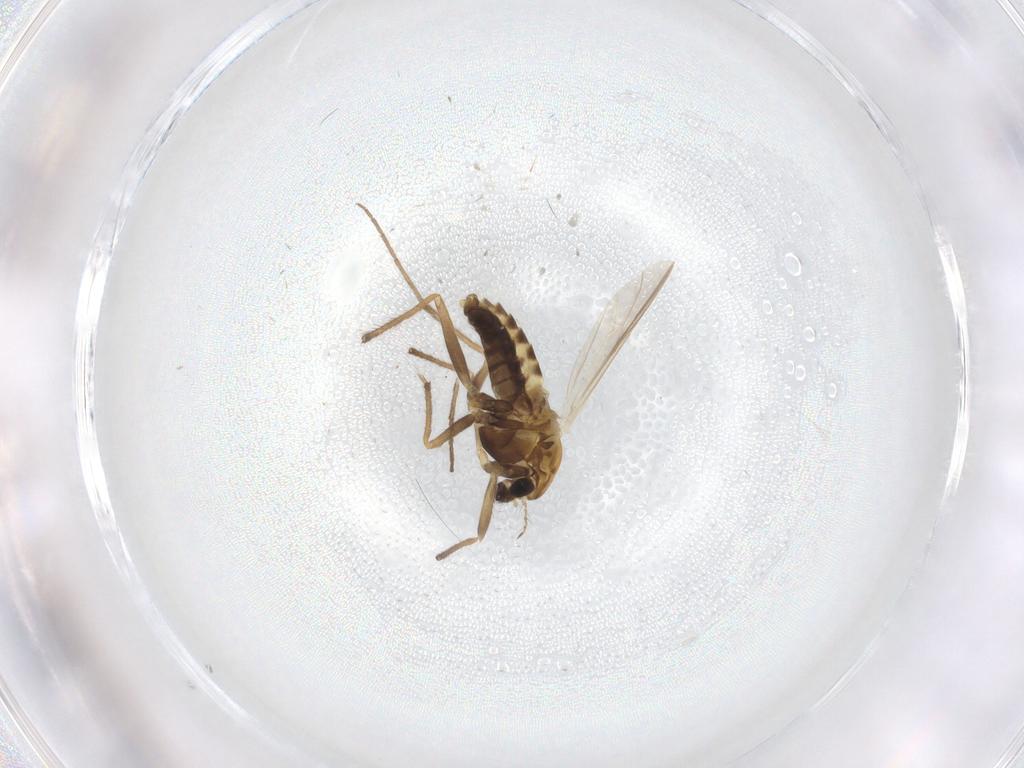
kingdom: Animalia
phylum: Arthropoda
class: Insecta
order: Diptera
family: Chironomidae
